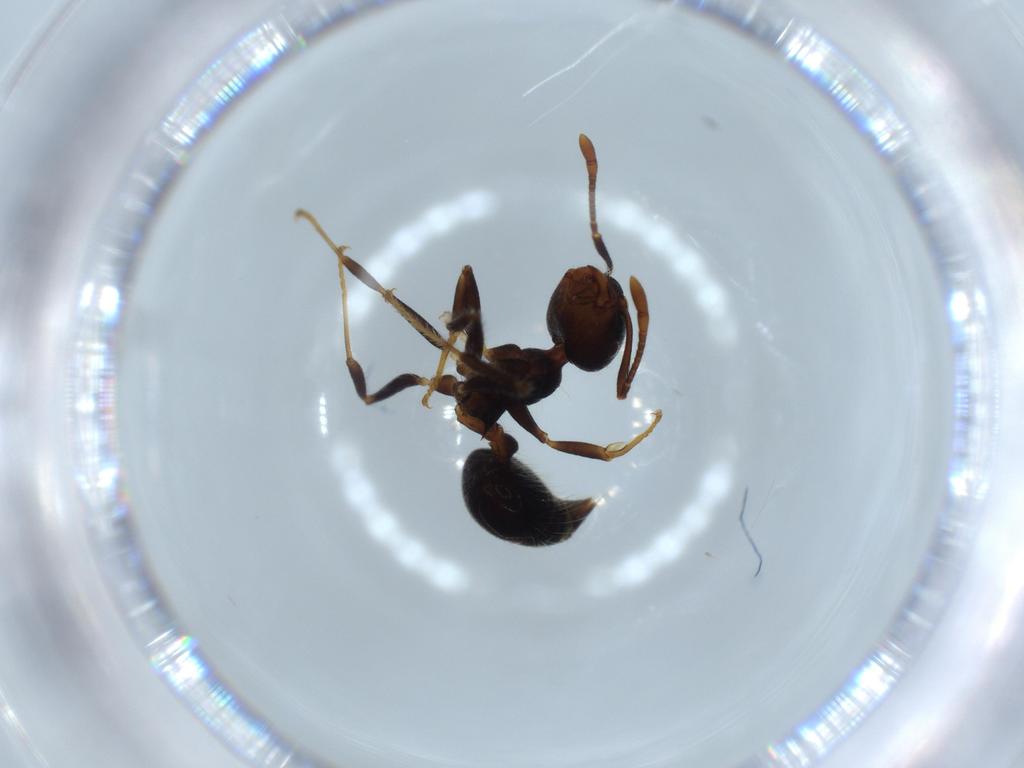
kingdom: Animalia
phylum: Arthropoda
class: Insecta
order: Hymenoptera
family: Formicidae
